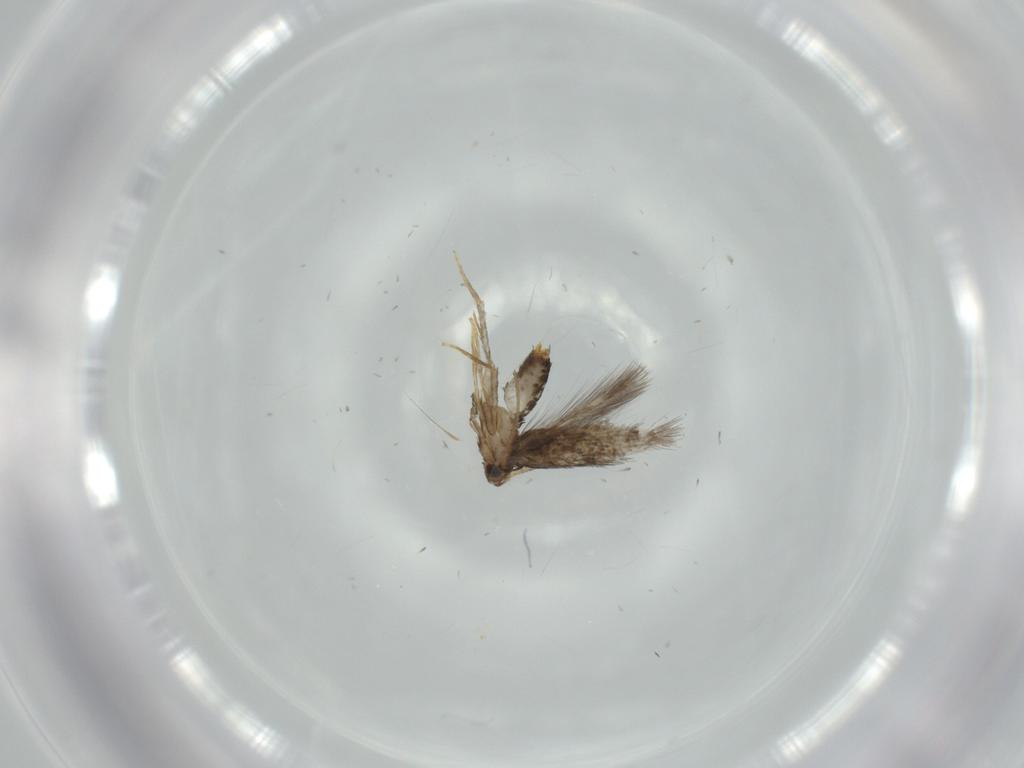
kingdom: Animalia
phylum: Arthropoda
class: Insecta
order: Lepidoptera
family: Nepticulidae
